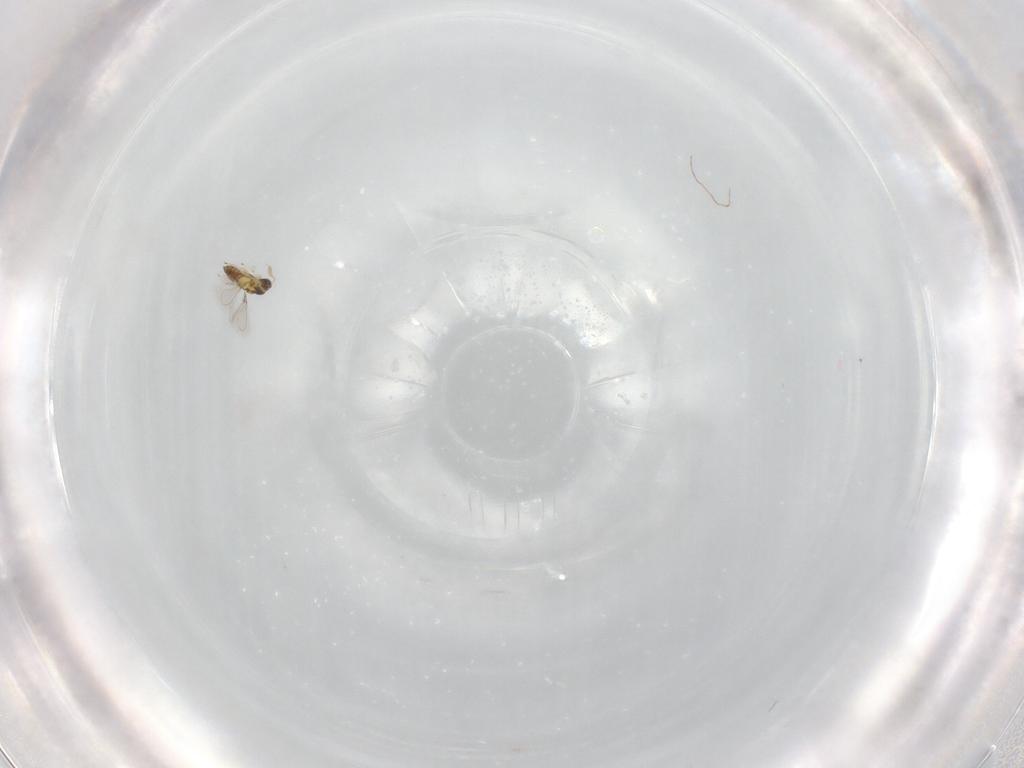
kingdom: Animalia
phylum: Arthropoda
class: Insecta
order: Hymenoptera
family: Mymaridae
